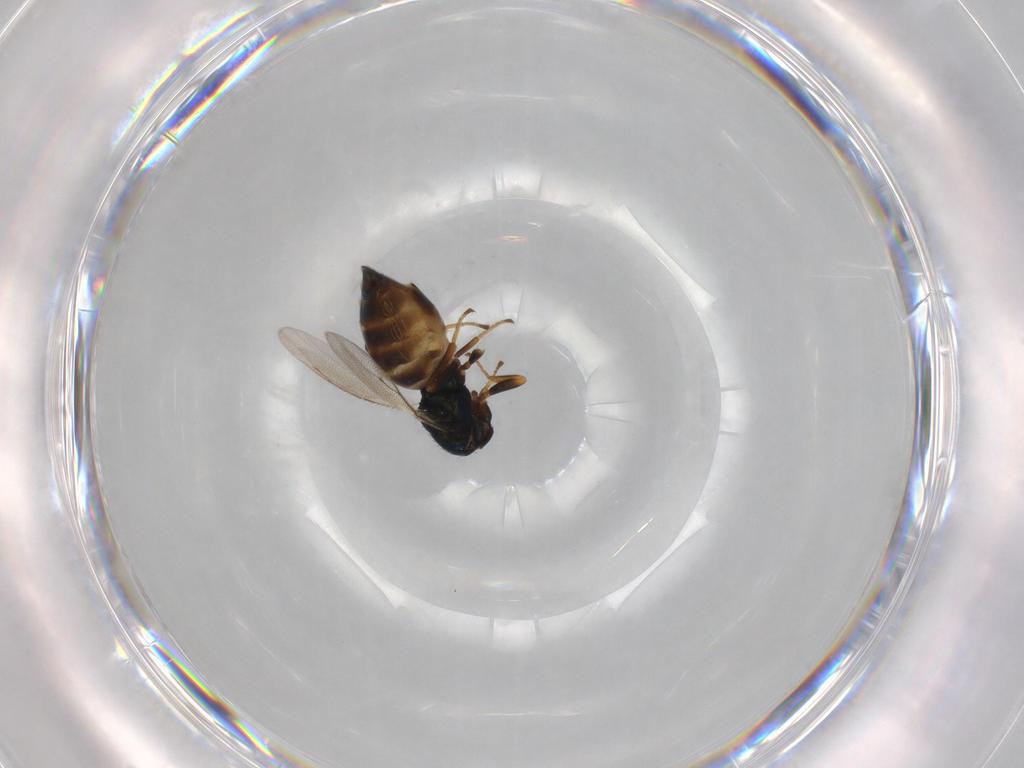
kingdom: Animalia
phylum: Arthropoda
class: Insecta
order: Hymenoptera
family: Pteromalidae
